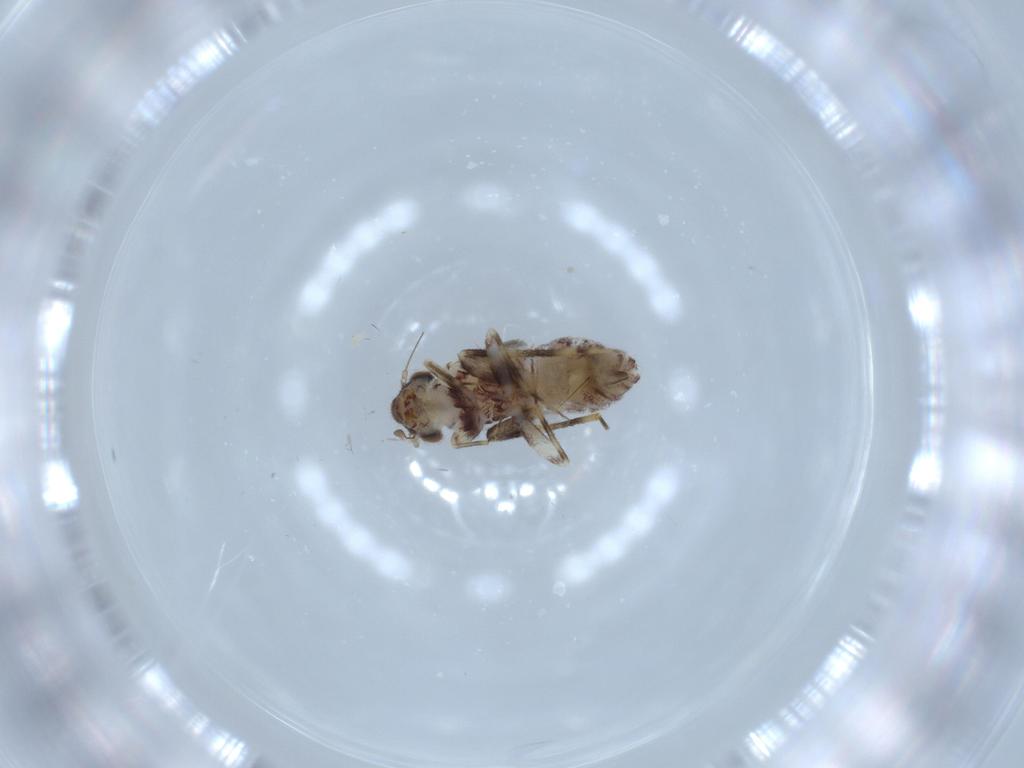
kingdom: Animalia
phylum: Arthropoda
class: Insecta
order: Psocodea
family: Lepidopsocidae
